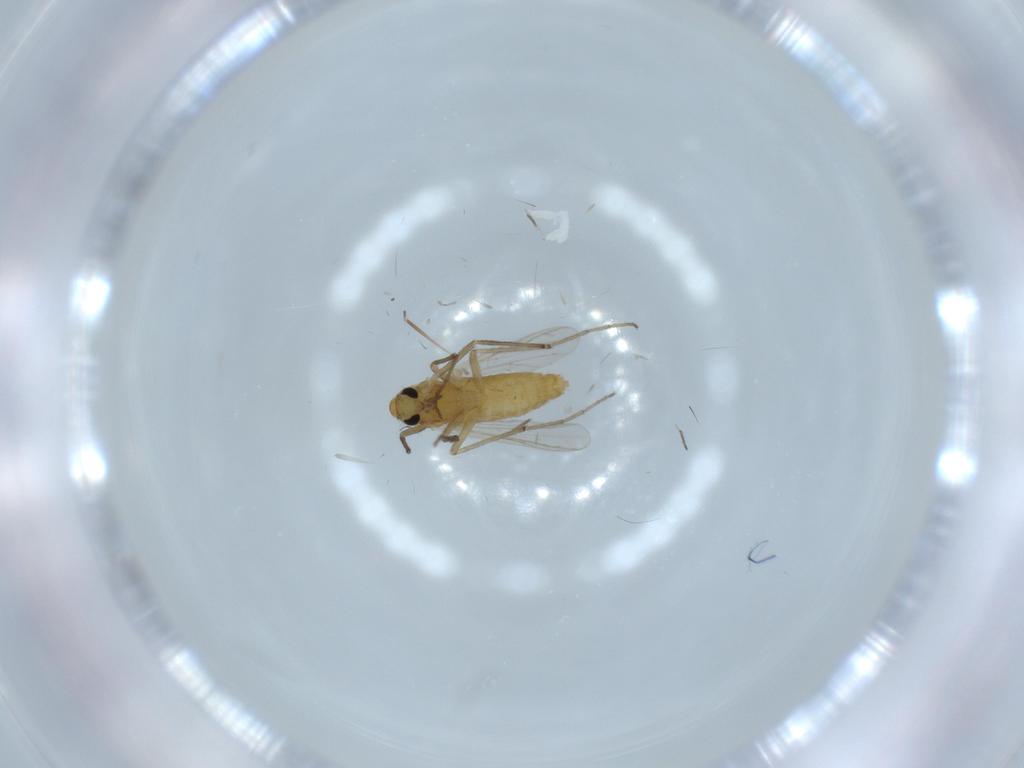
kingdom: Animalia
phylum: Arthropoda
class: Insecta
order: Diptera
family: Chironomidae
